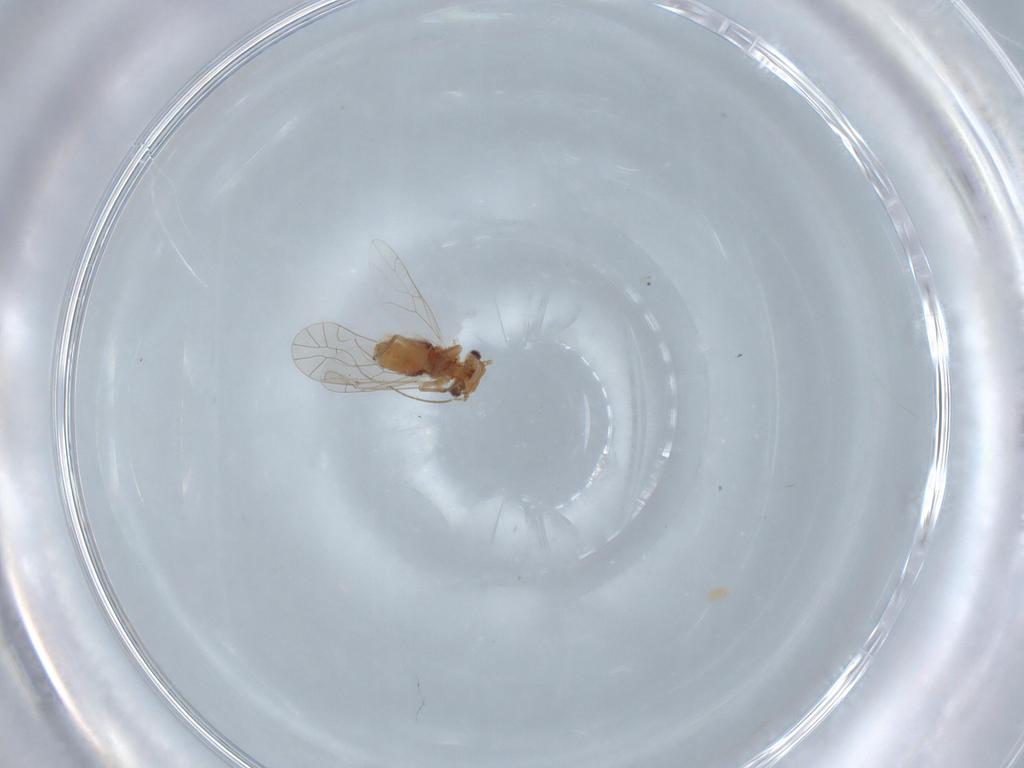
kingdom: Animalia
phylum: Arthropoda
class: Insecta
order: Psocodea
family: Lachesillidae
